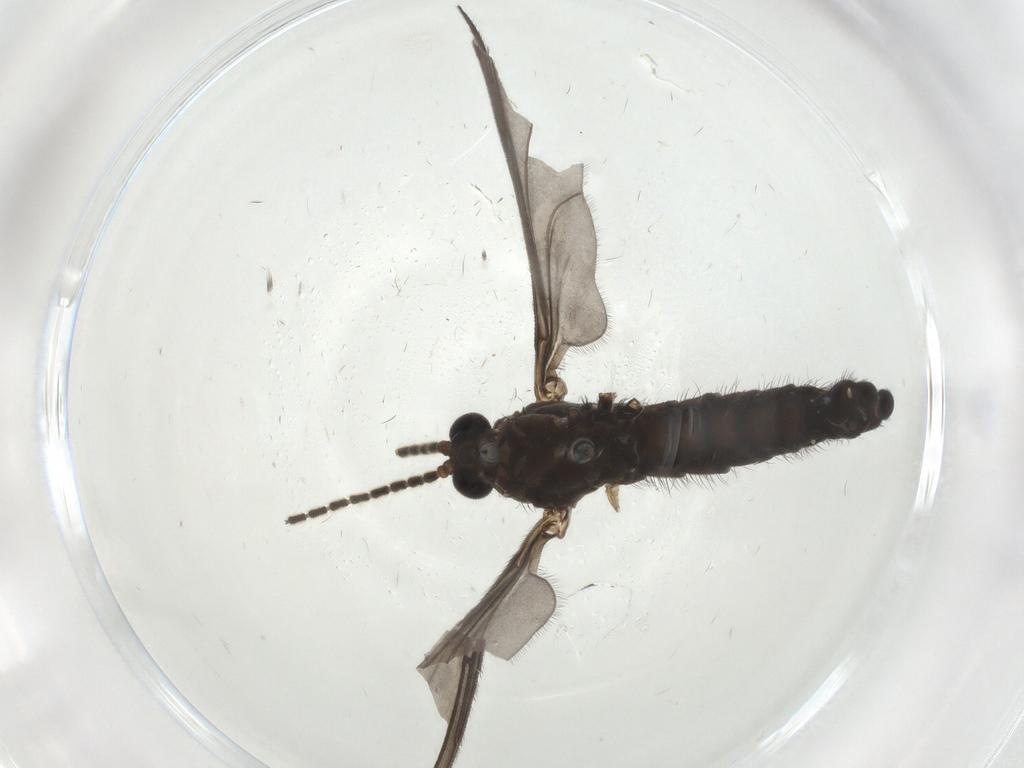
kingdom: Animalia
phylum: Arthropoda
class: Insecta
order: Diptera
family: Sciaridae
